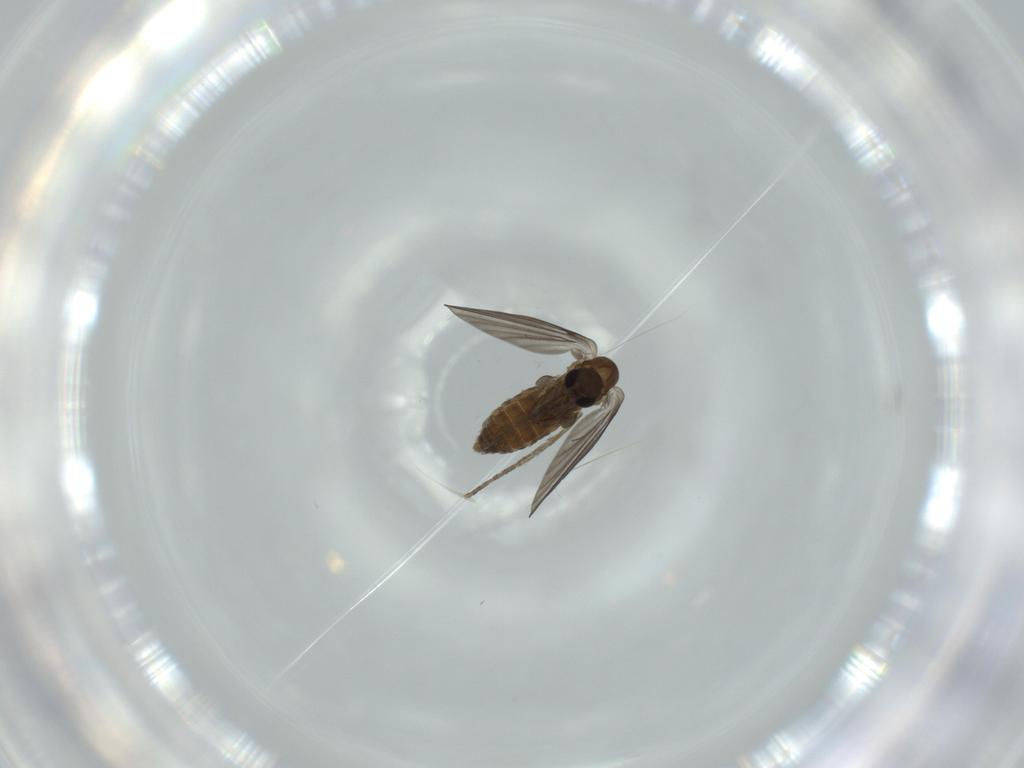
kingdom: Animalia
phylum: Arthropoda
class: Insecta
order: Diptera
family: Psychodidae
